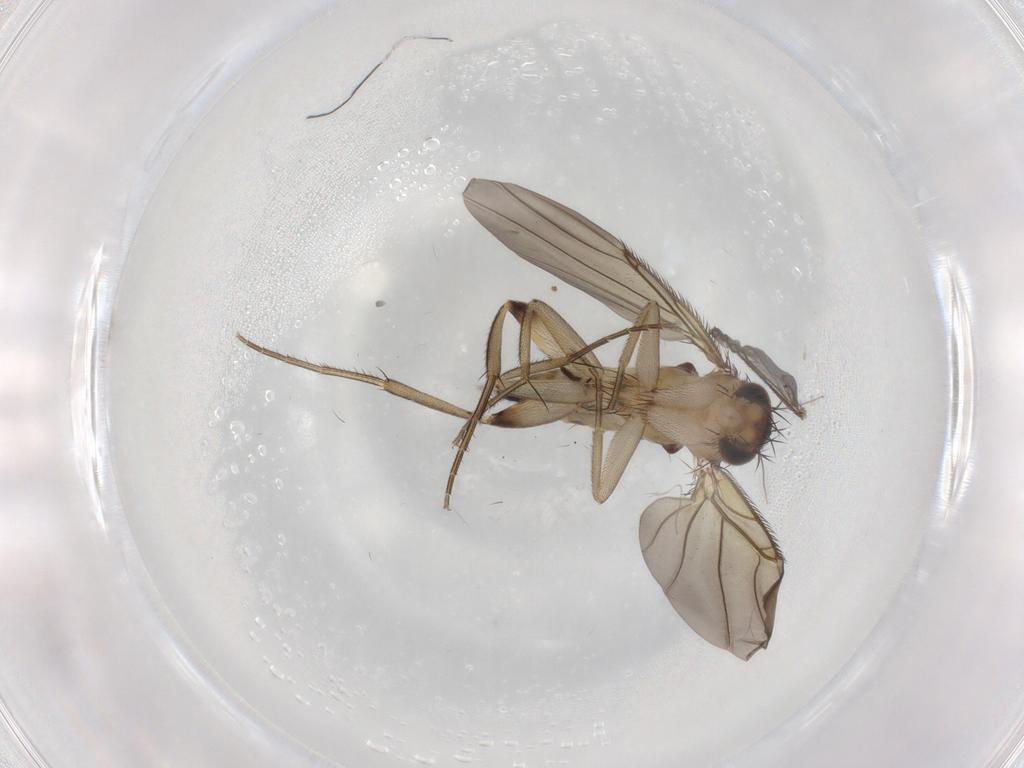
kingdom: Animalia
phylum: Arthropoda
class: Insecta
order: Diptera
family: Phoridae
